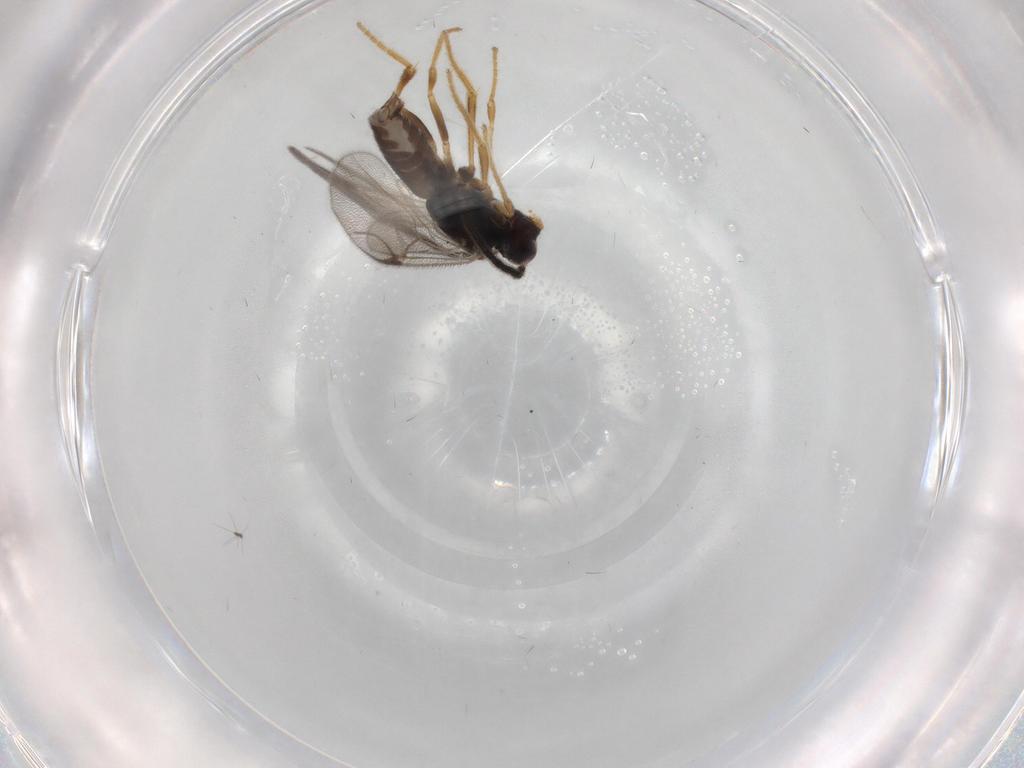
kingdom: Animalia
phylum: Arthropoda
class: Insecta
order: Hymenoptera
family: Dryinidae
